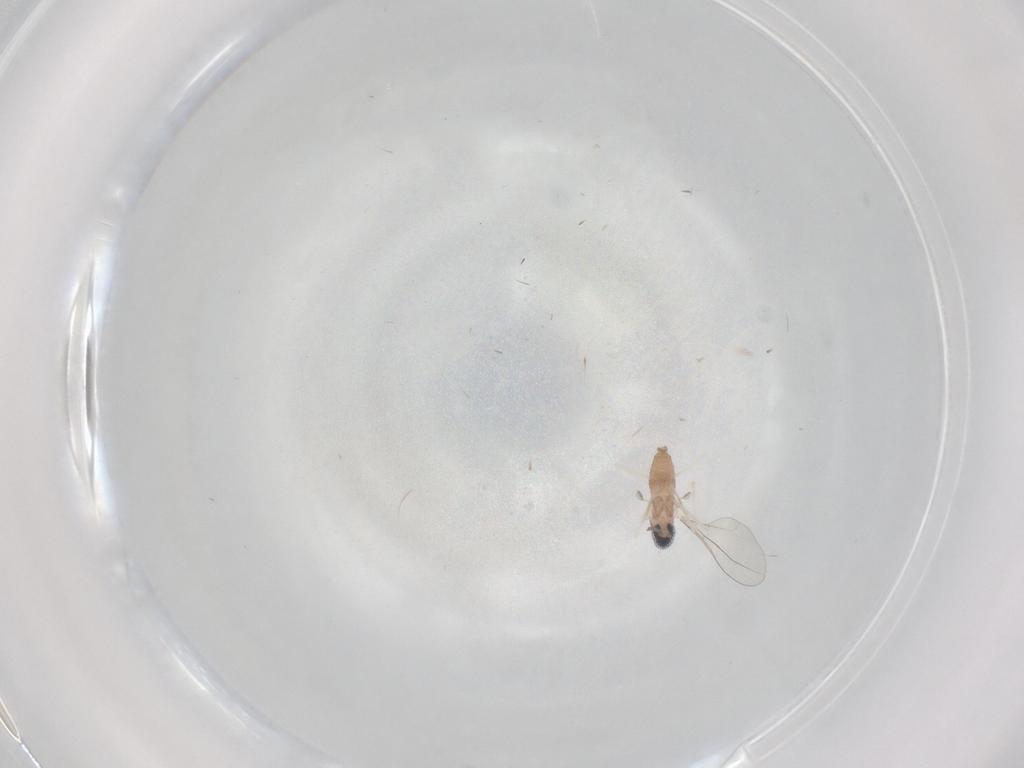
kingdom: Animalia
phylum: Arthropoda
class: Insecta
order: Diptera
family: Cecidomyiidae
